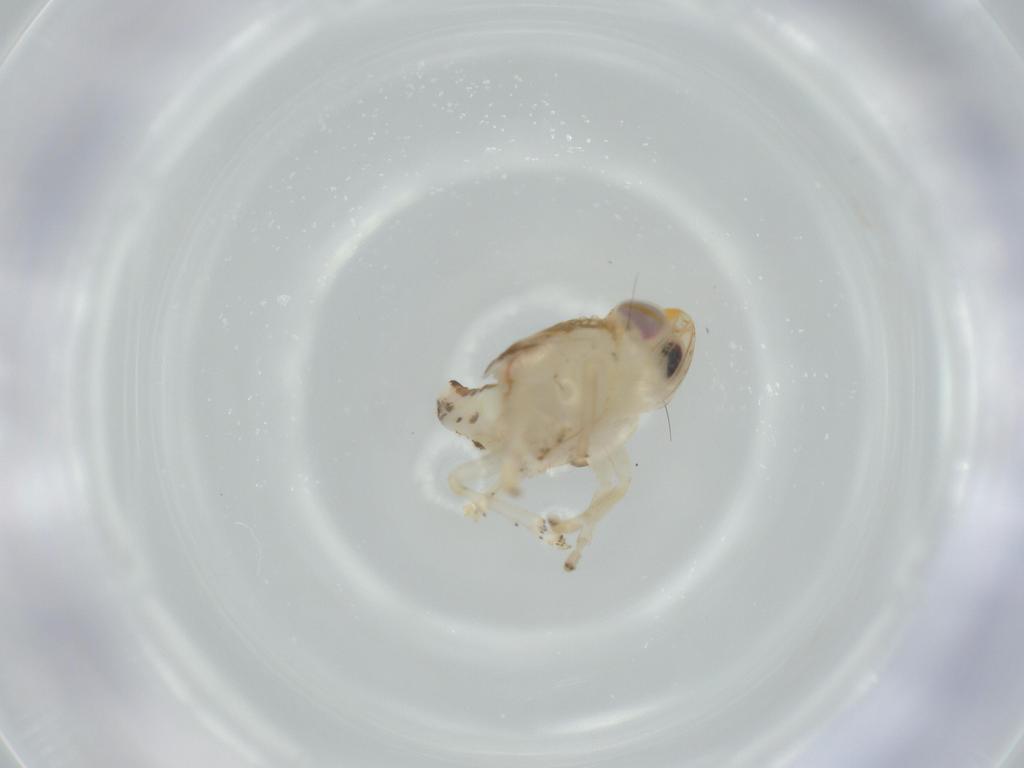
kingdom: Animalia
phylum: Arthropoda
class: Insecta
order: Hemiptera
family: Nogodinidae
